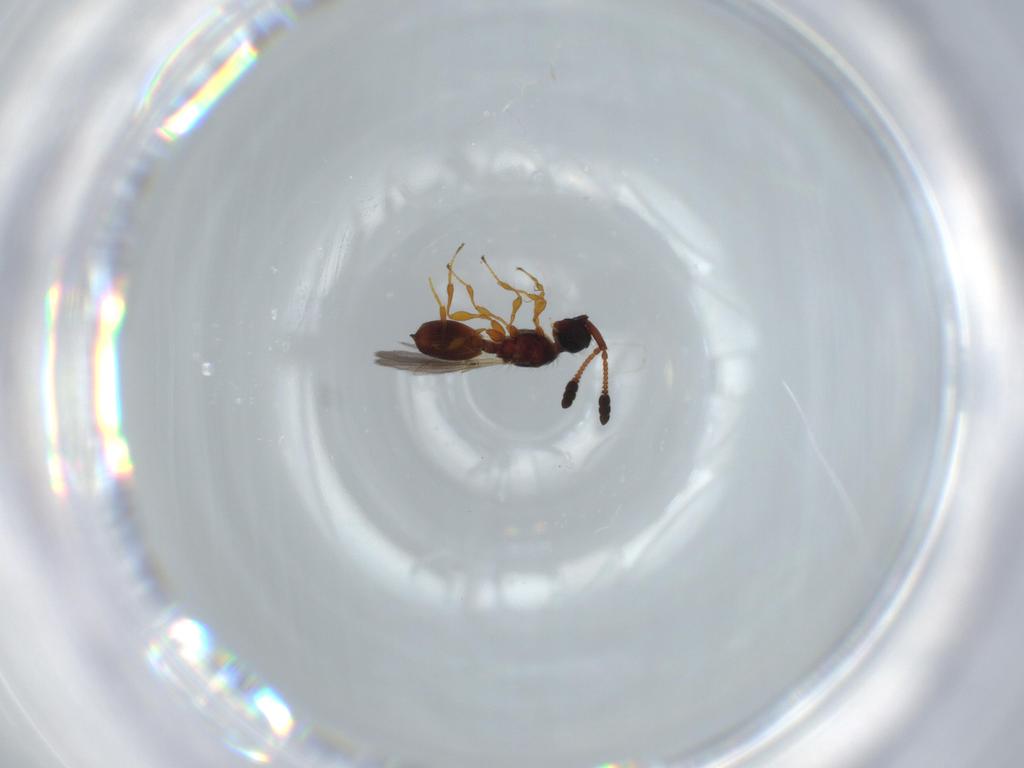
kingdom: Animalia
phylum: Arthropoda
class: Insecta
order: Hymenoptera
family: Diapriidae
